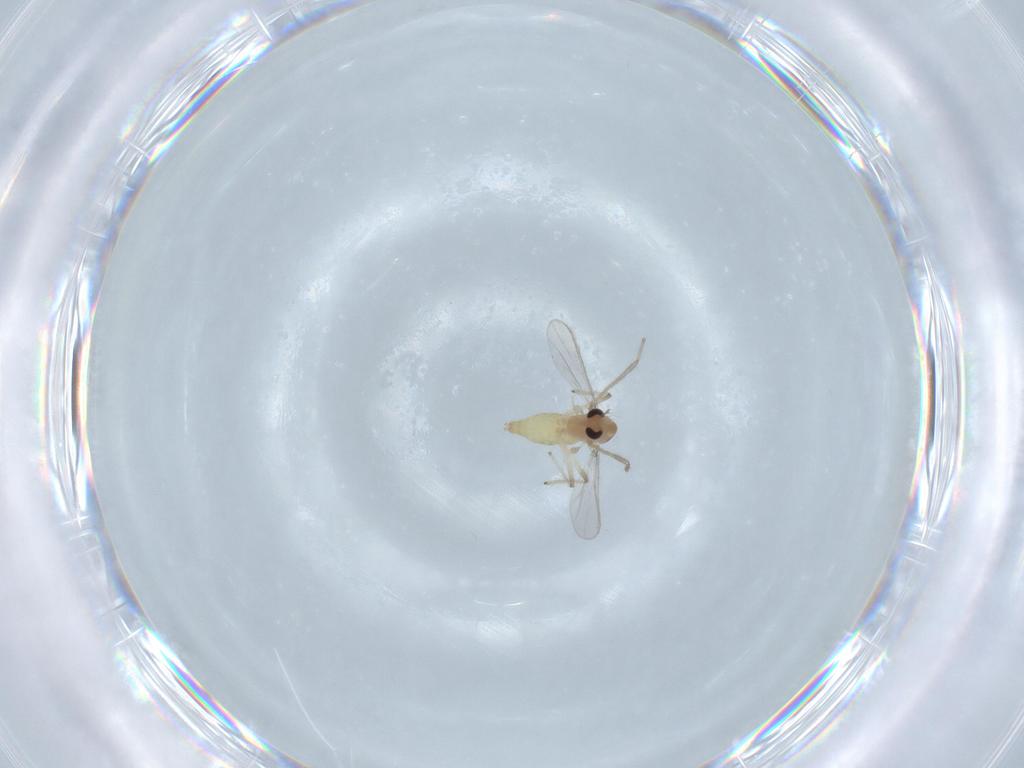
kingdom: Animalia
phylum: Arthropoda
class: Insecta
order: Diptera
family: Chironomidae
